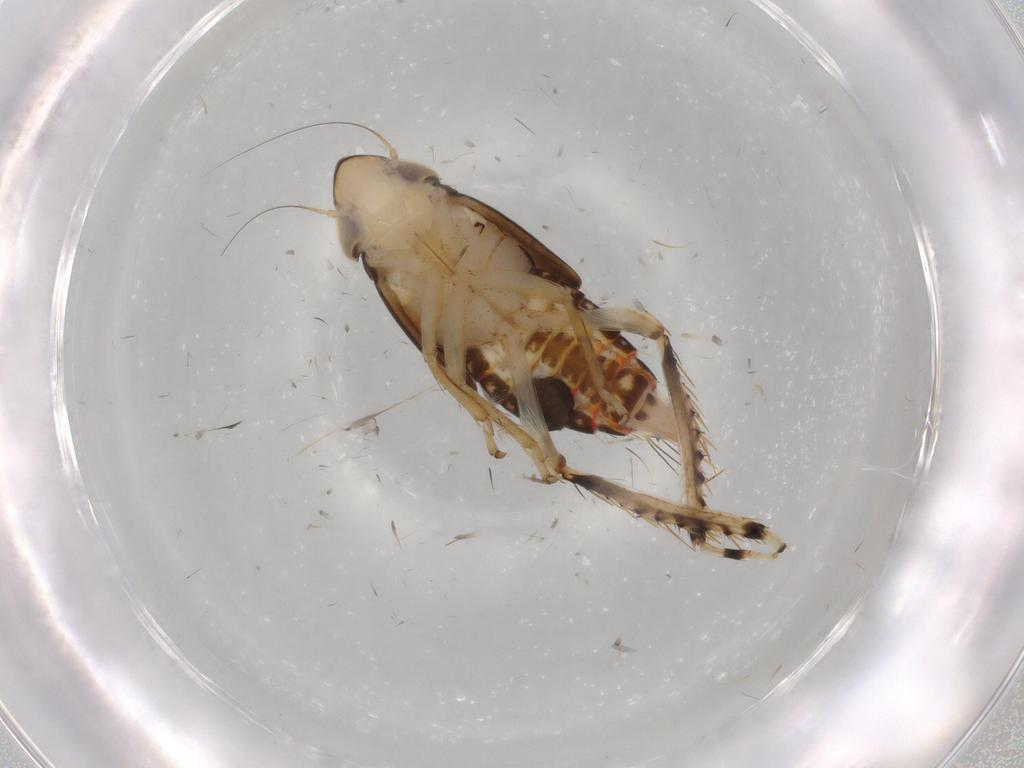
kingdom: Animalia
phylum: Arthropoda
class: Insecta
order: Hemiptera
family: Cicadellidae
